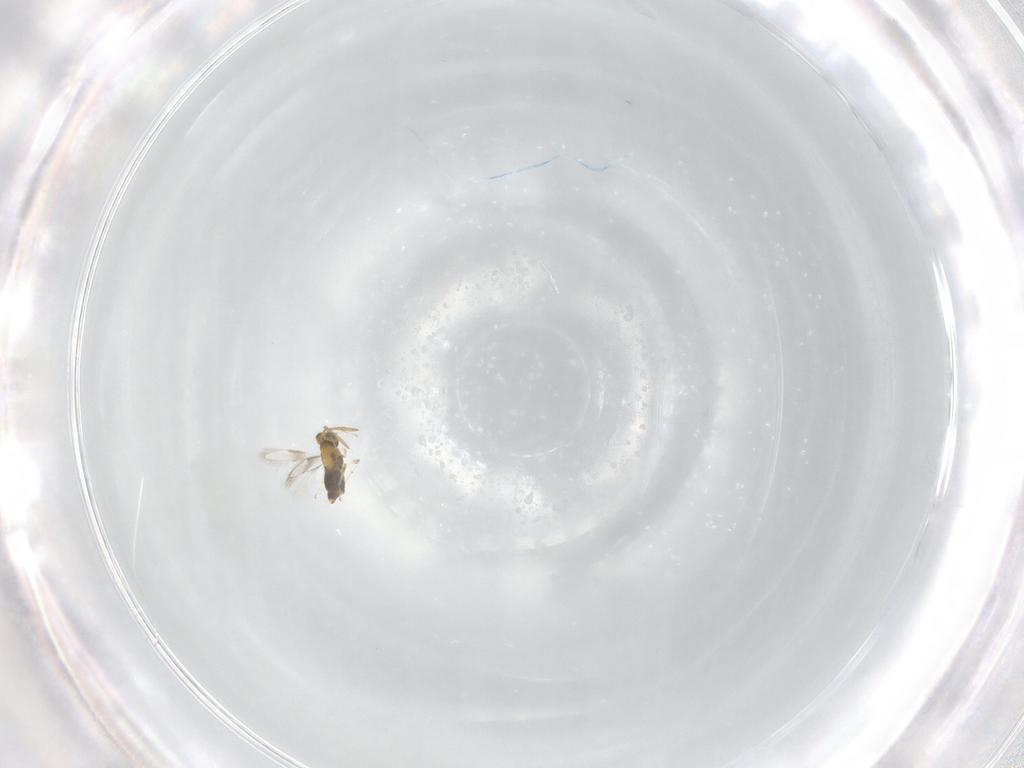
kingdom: Animalia
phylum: Arthropoda
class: Insecta
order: Hymenoptera
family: Aphelinidae
